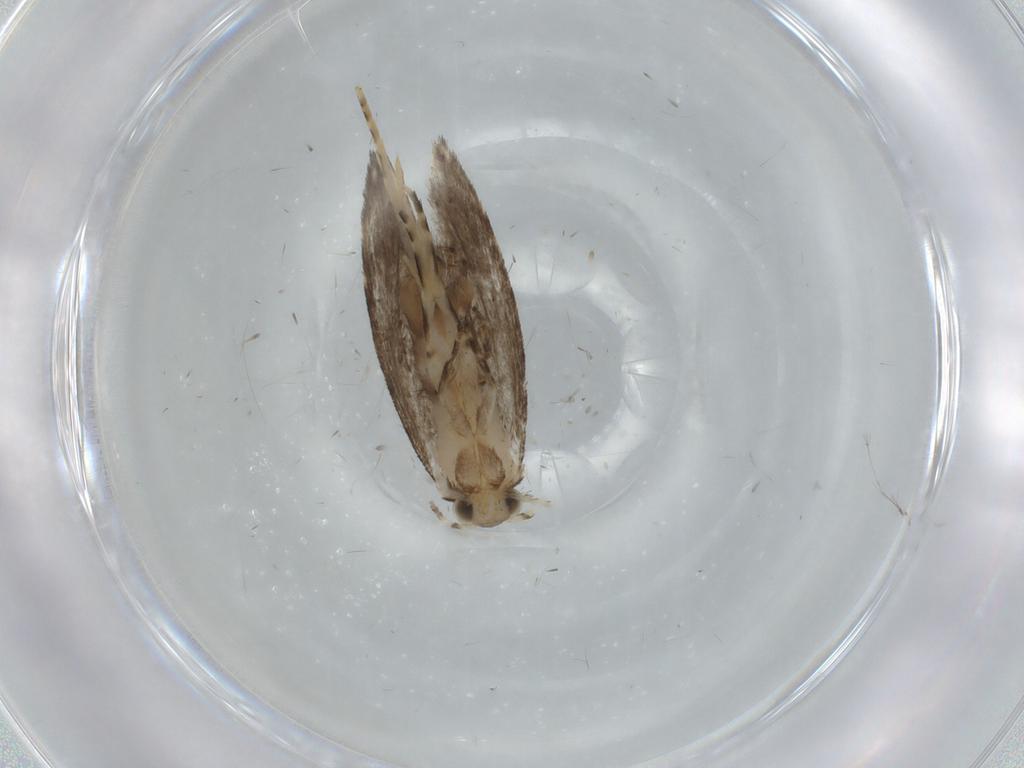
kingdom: Animalia
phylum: Arthropoda
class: Insecta
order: Lepidoptera
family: Tineidae
